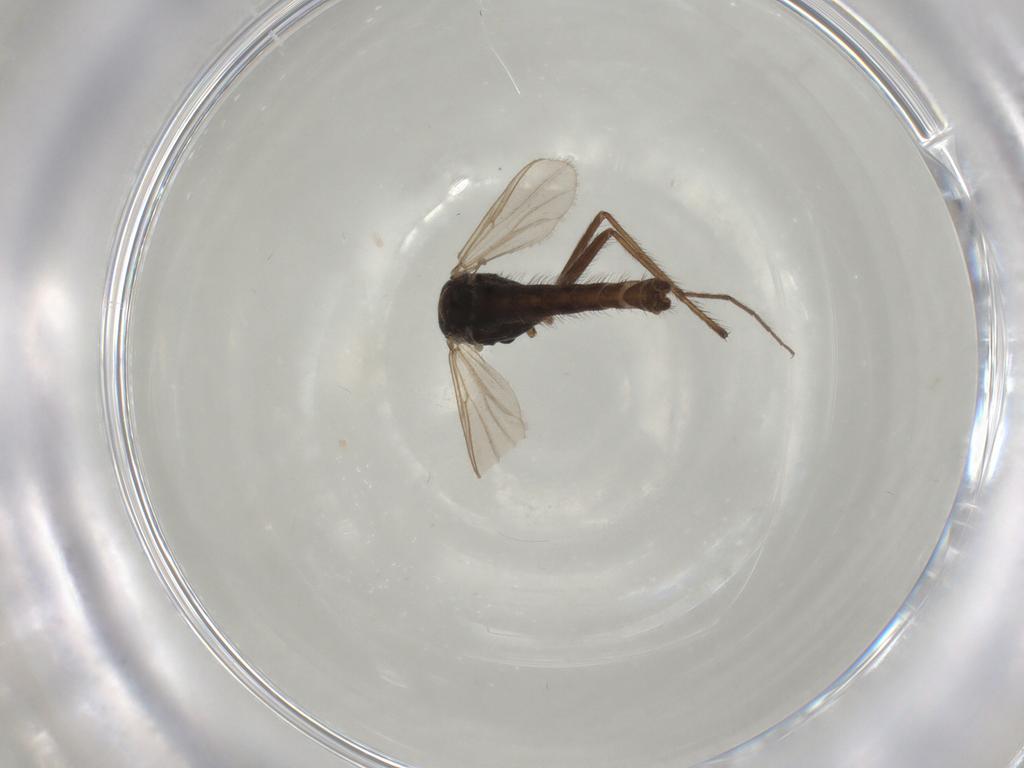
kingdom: Animalia
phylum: Arthropoda
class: Insecta
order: Diptera
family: Chironomidae
